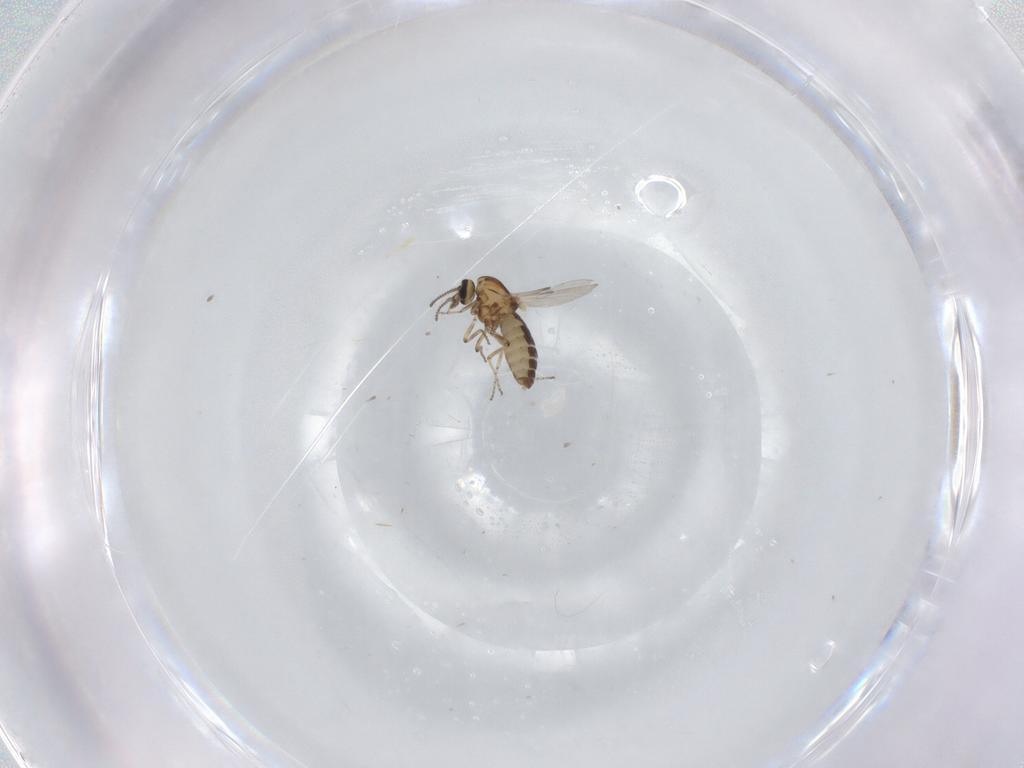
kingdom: Animalia
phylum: Arthropoda
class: Insecta
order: Diptera
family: Ceratopogonidae
